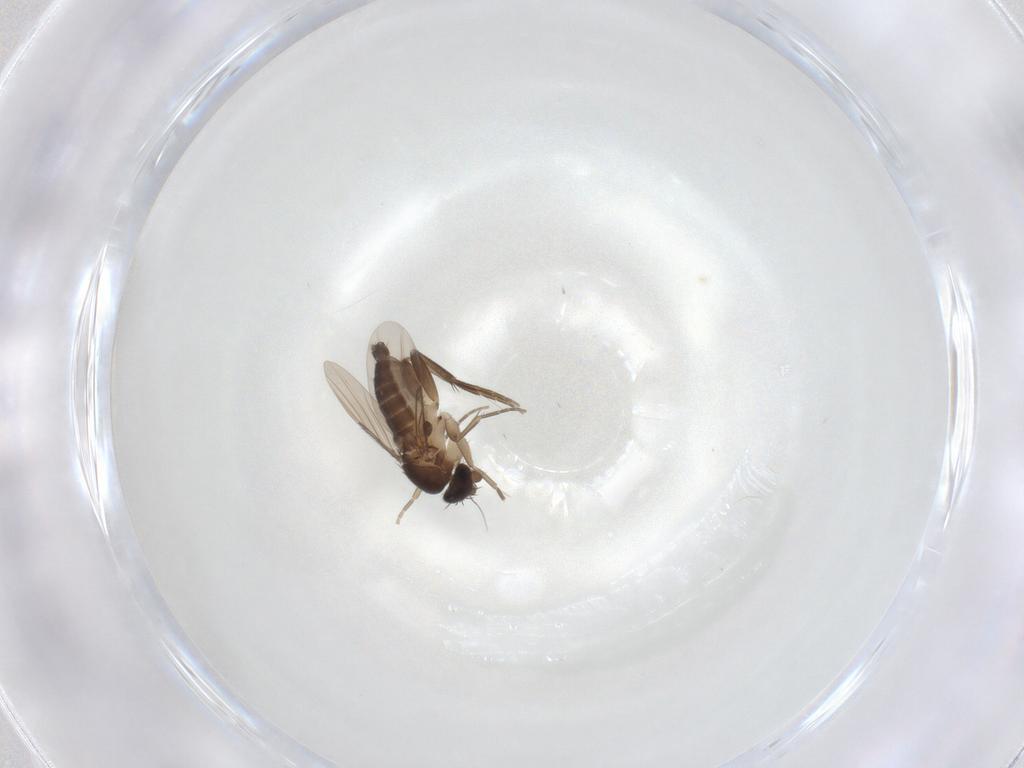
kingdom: Animalia
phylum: Arthropoda
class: Insecta
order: Diptera
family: Phoridae
